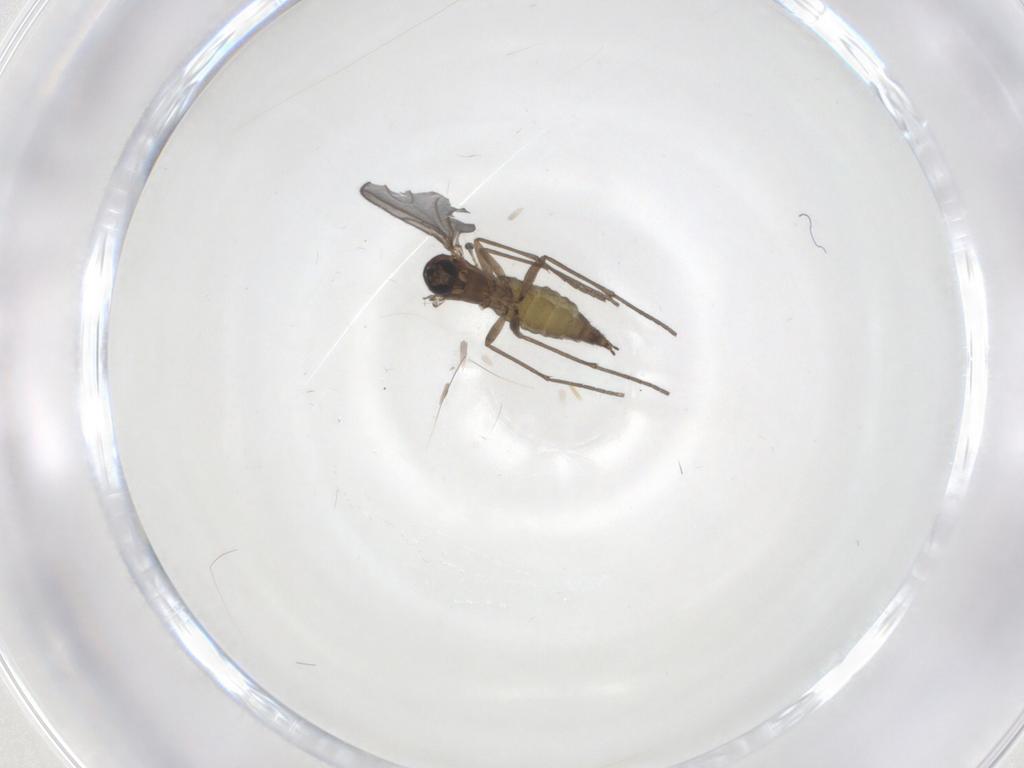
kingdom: Animalia
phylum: Arthropoda
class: Insecta
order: Diptera
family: Sciaridae
